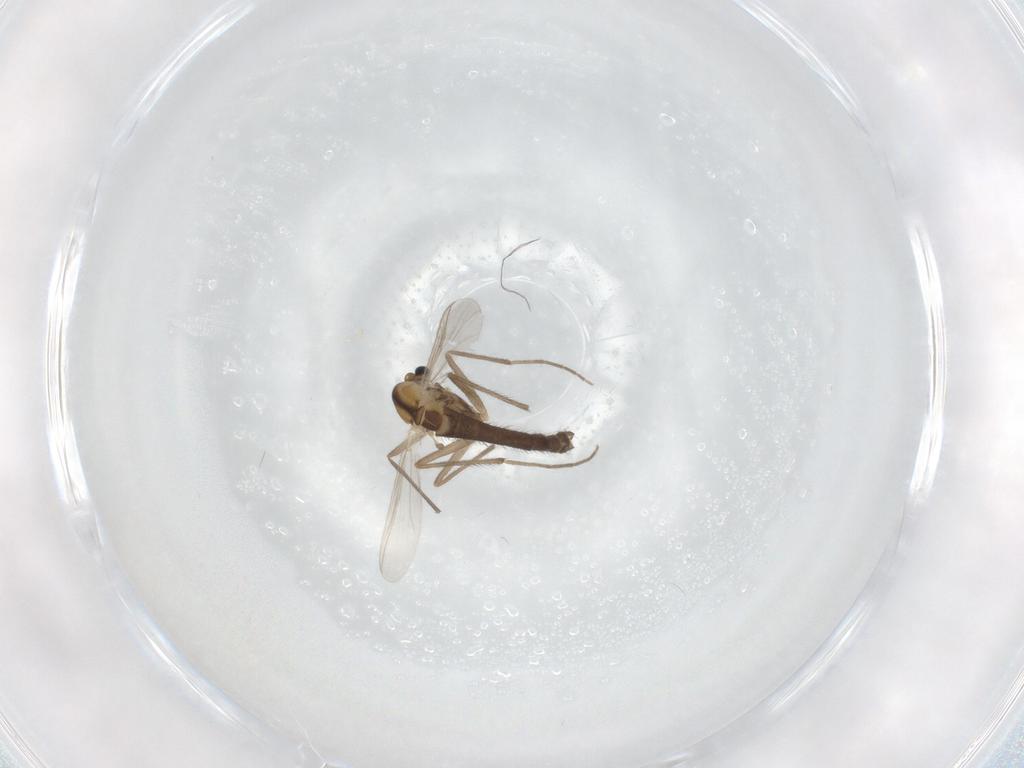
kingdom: Animalia
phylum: Arthropoda
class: Insecta
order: Diptera
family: Chironomidae
